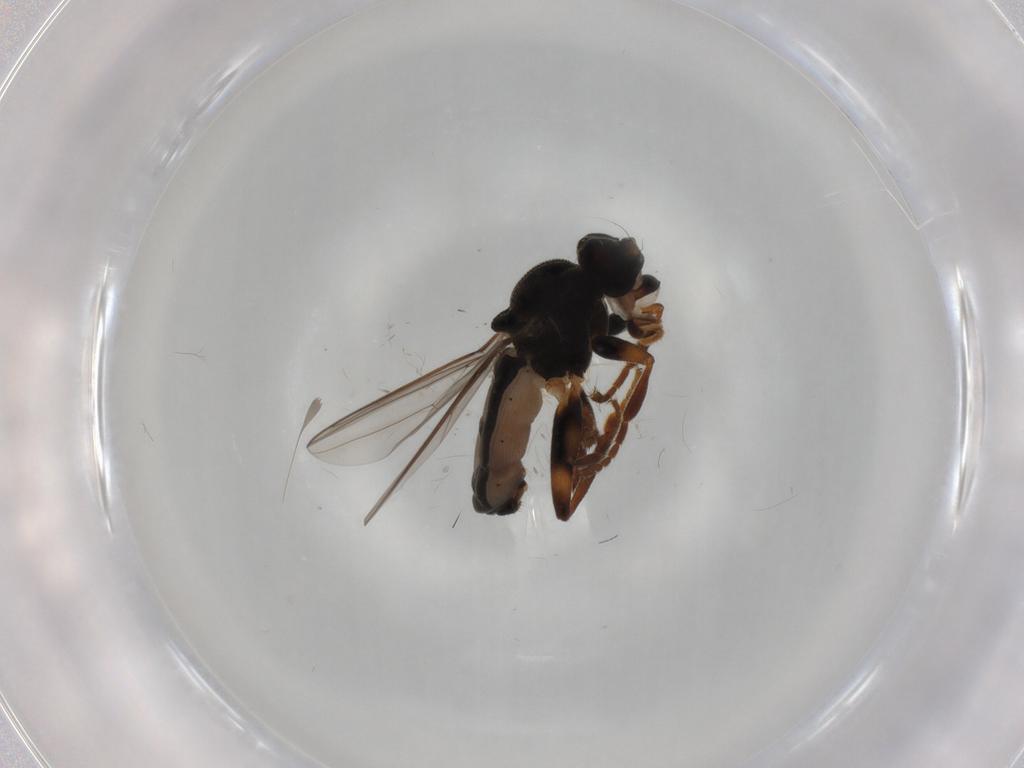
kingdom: Animalia
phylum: Arthropoda
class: Insecta
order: Diptera
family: Sphaeroceridae
